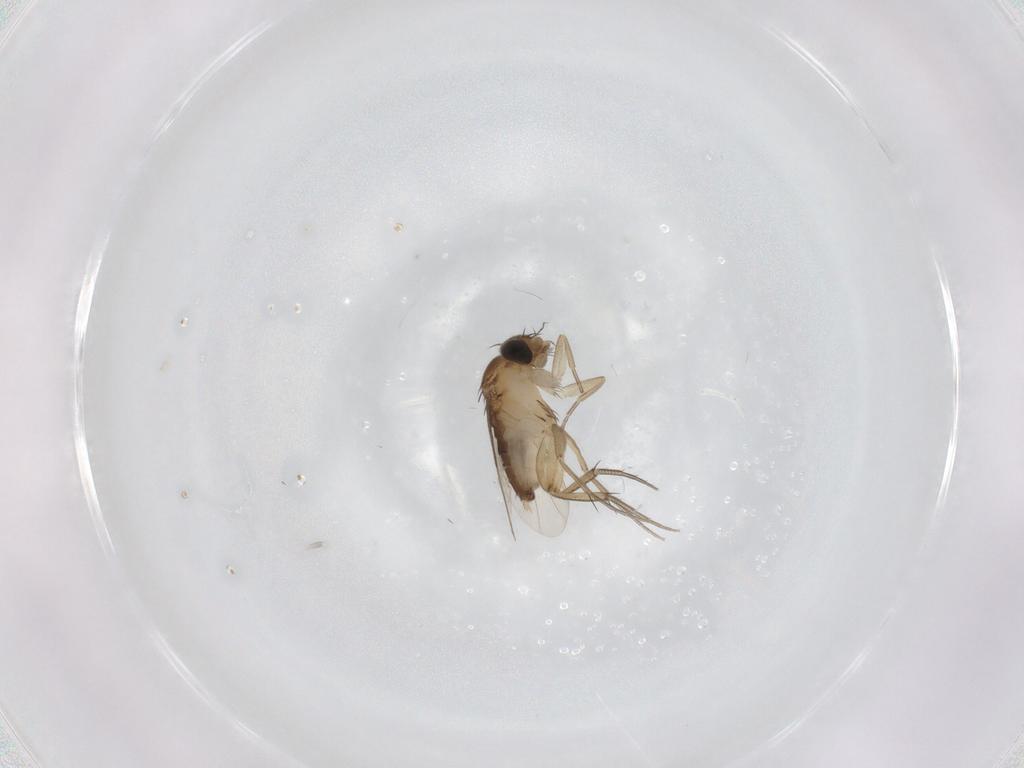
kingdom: Animalia
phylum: Arthropoda
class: Insecta
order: Diptera
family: Phoridae
